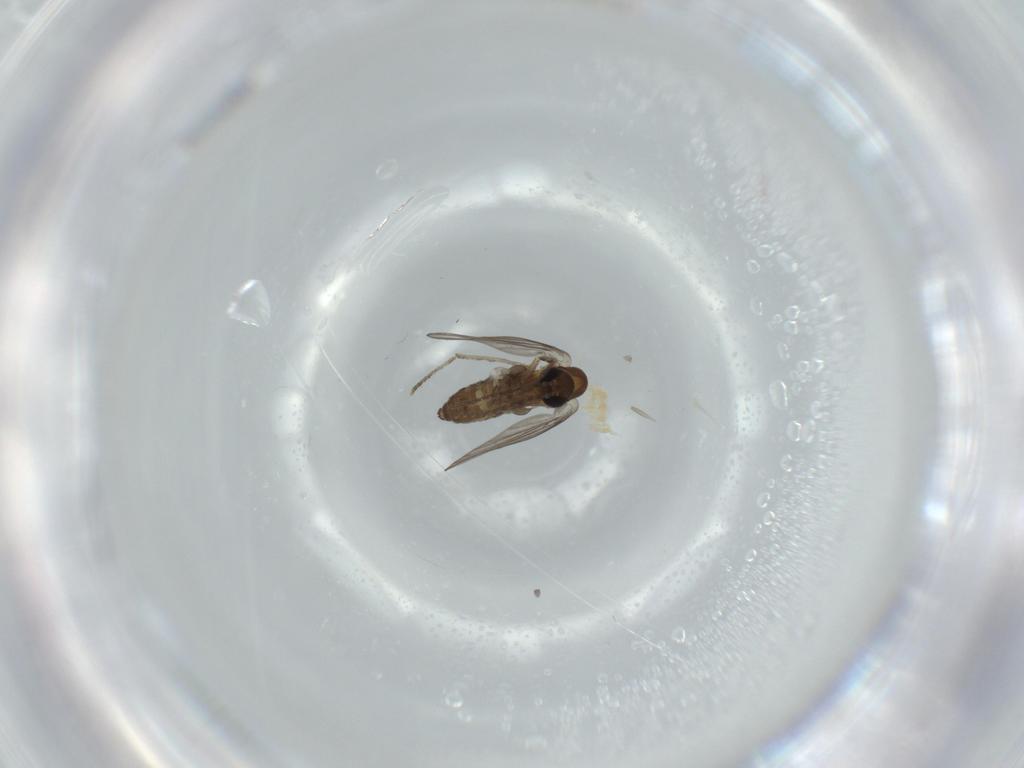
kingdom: Animalia
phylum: Arthropoda
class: Insecta
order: Diptera
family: Psychodidae
